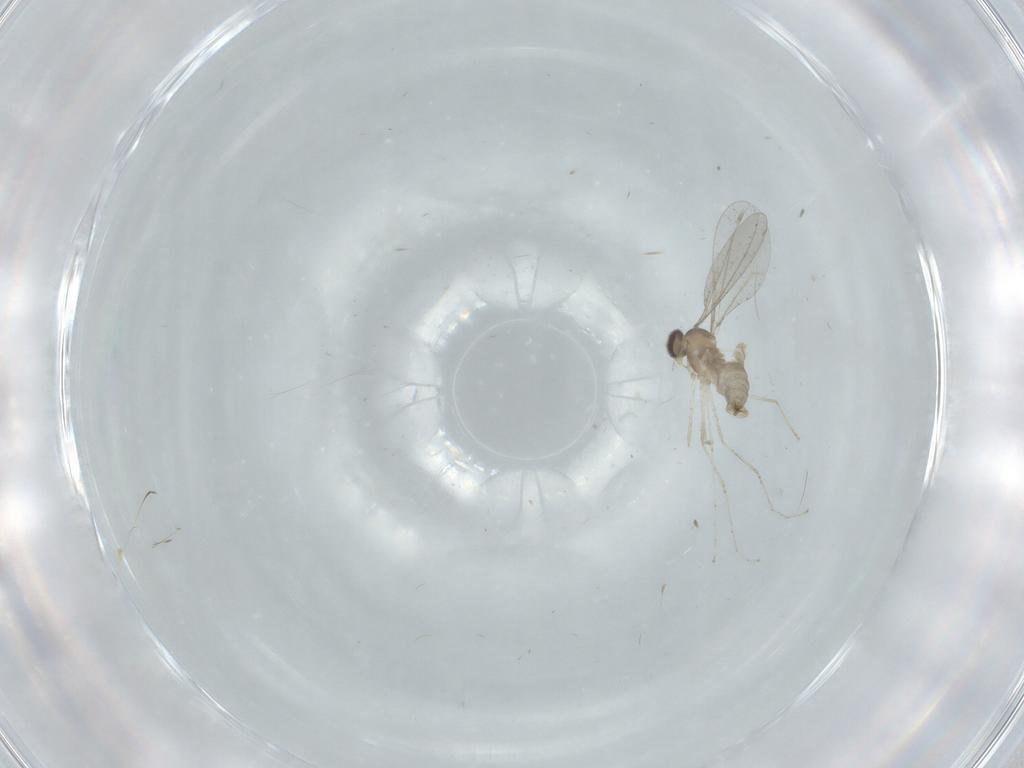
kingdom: Animalia
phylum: Arthropoda
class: Insecta
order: Diptera
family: Cecidomyiidae
